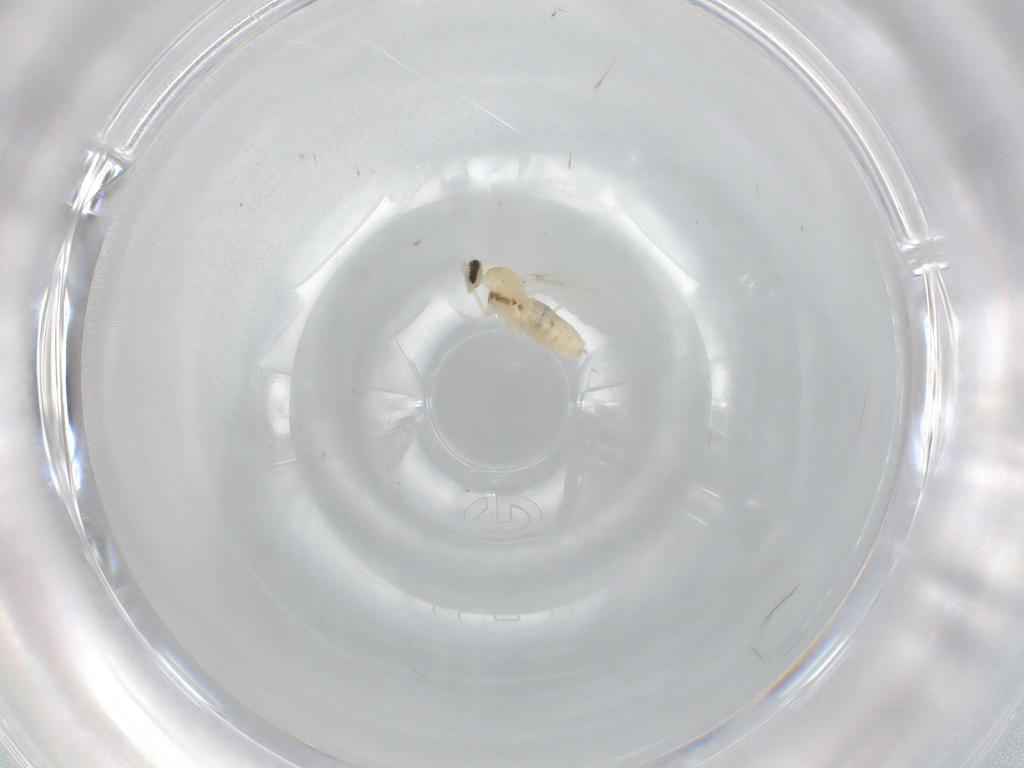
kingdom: Animalia
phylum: Arthropoda
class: Insecta
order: Diptera
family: Cecidomyiidae
